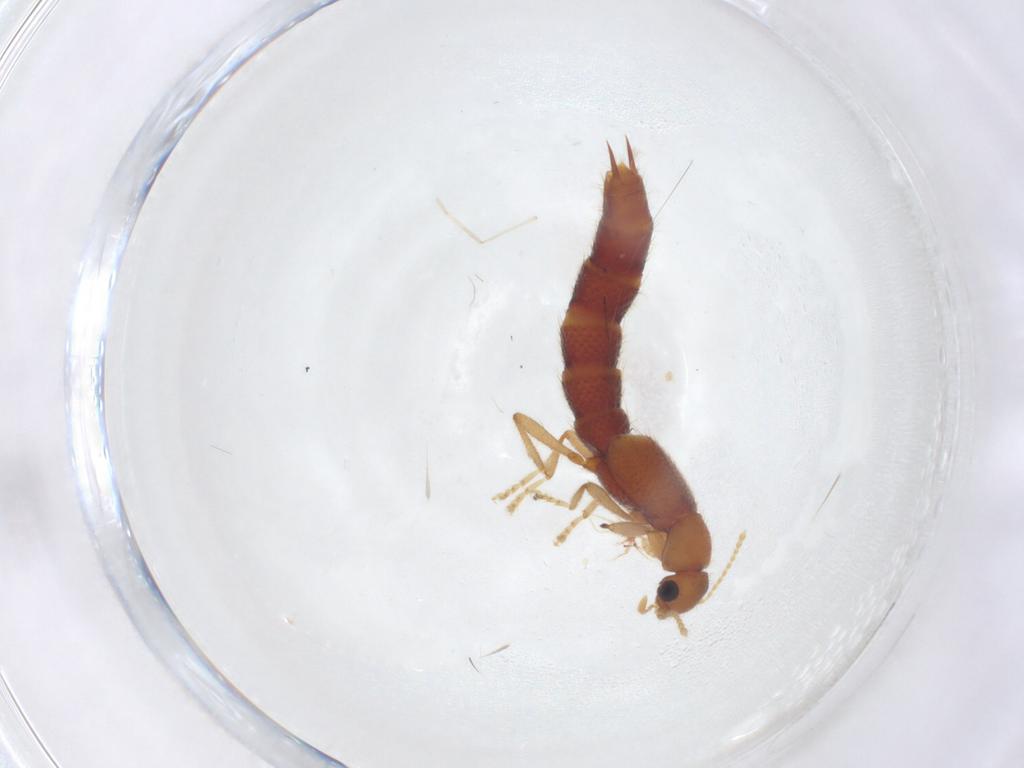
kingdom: Animalia
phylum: Arthropoda
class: Insecta
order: Coleoptera
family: Staphylinidae
